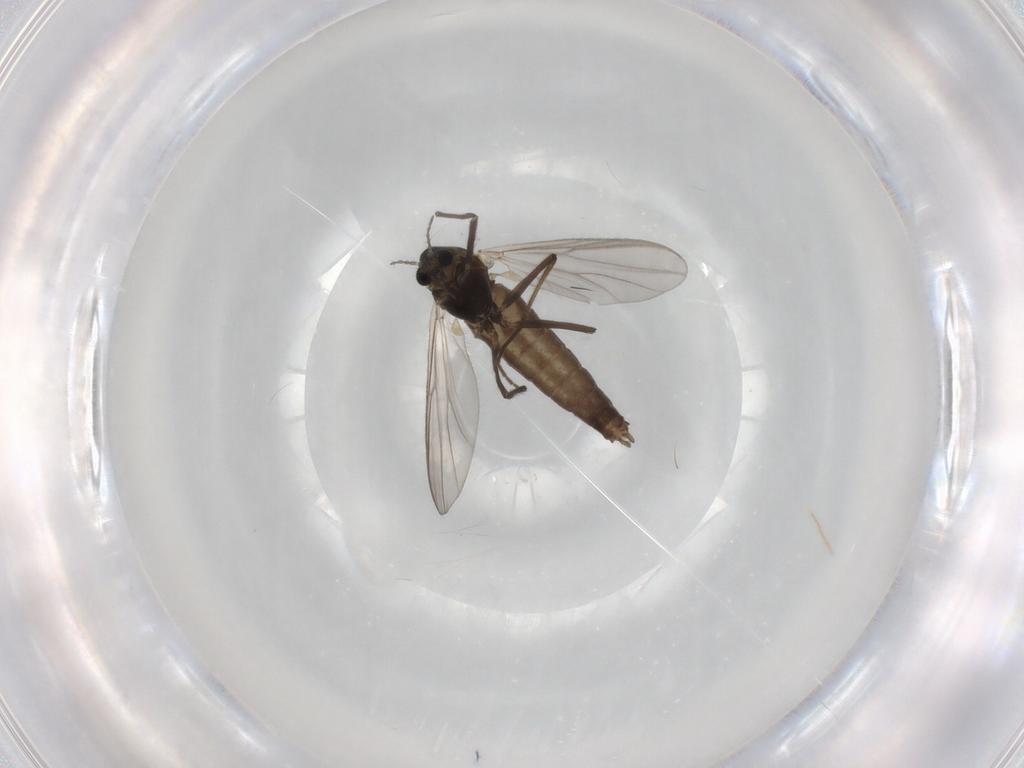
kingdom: Animalia
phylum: Arthropoda
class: Insecta
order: Diptera
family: Chironomidae
